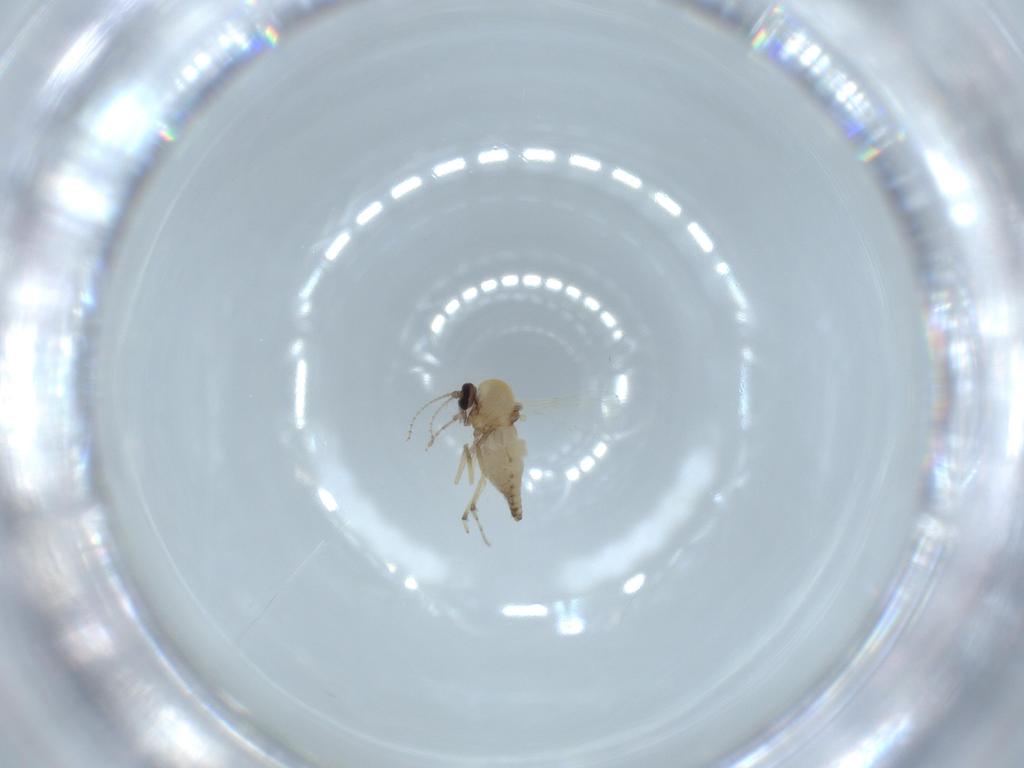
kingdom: Animalia
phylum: Arthropoda
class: Insecta
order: Diptera
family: Ceratopogonidae
